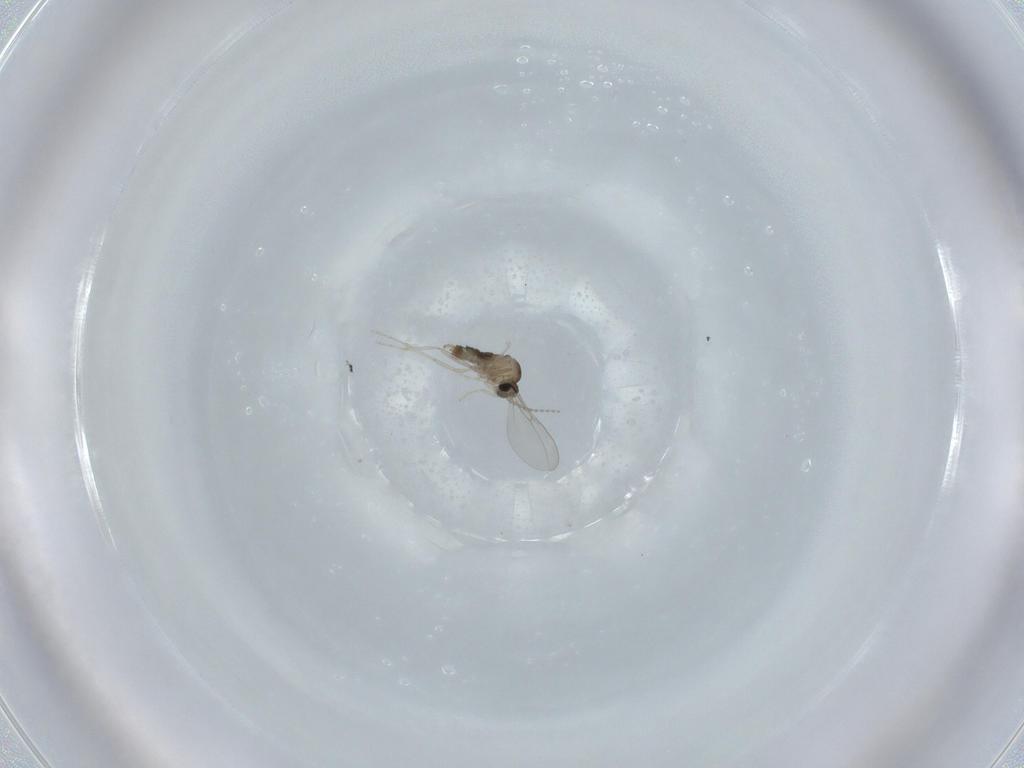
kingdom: Animalia
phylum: Arthropoda
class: Insecta
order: Diptera
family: Cecidomyiidae
